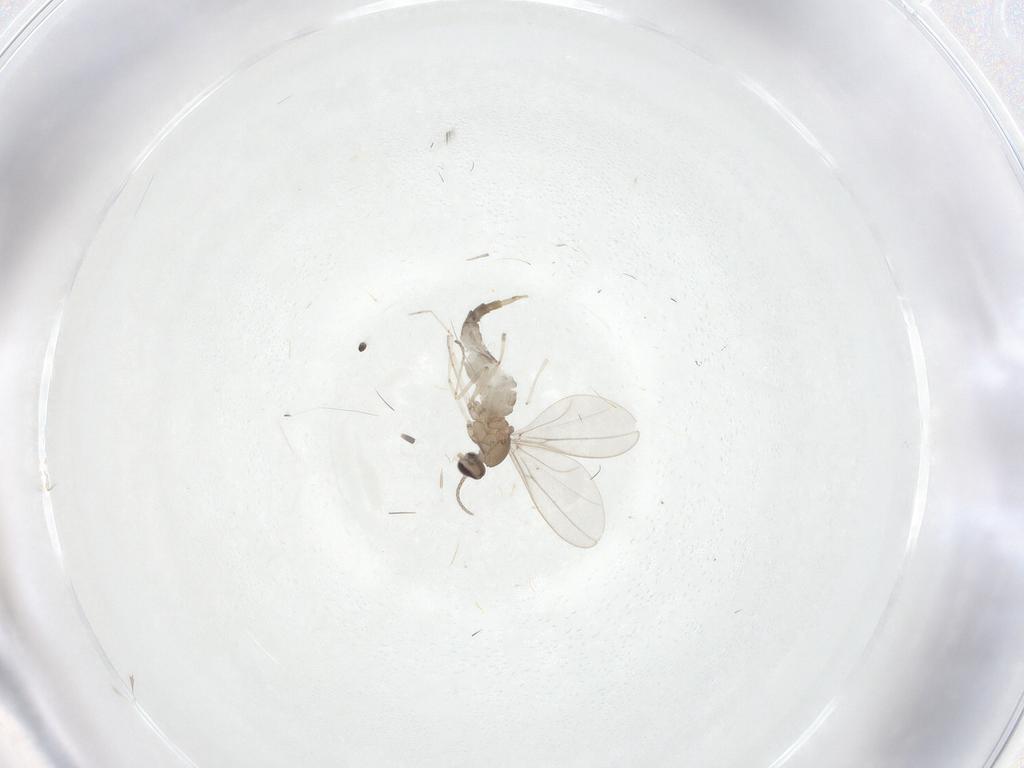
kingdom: Animalia
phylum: Arthropoda
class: Insecta
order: Diptera
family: Cecidomyiidae
